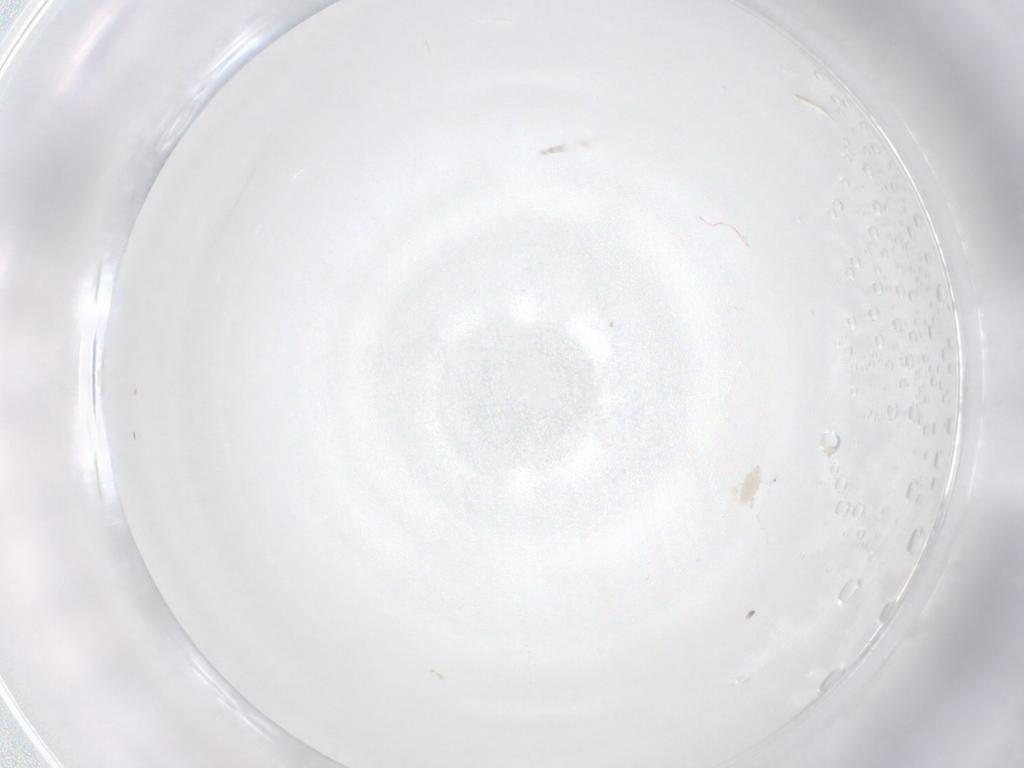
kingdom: Animalia
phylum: Arthropoda
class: Arachnida
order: Trombidiformes
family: Microtrombidiidae
